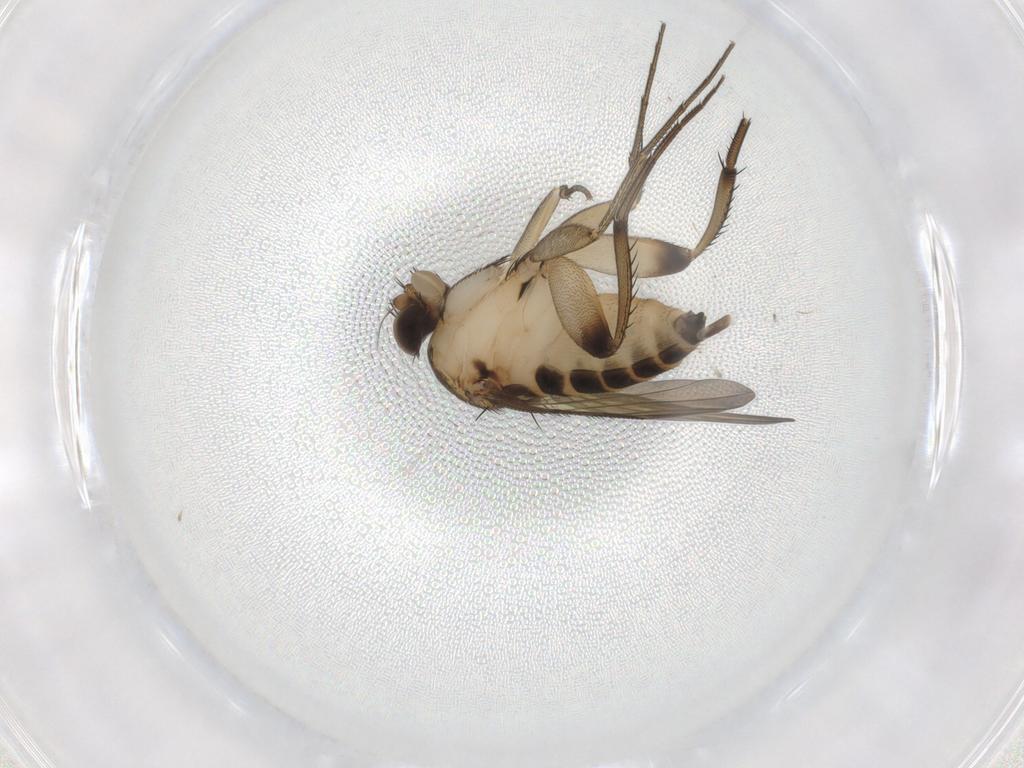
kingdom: Animalia
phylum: Arthropoda
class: Insecta
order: Diptera
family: Phoridae
